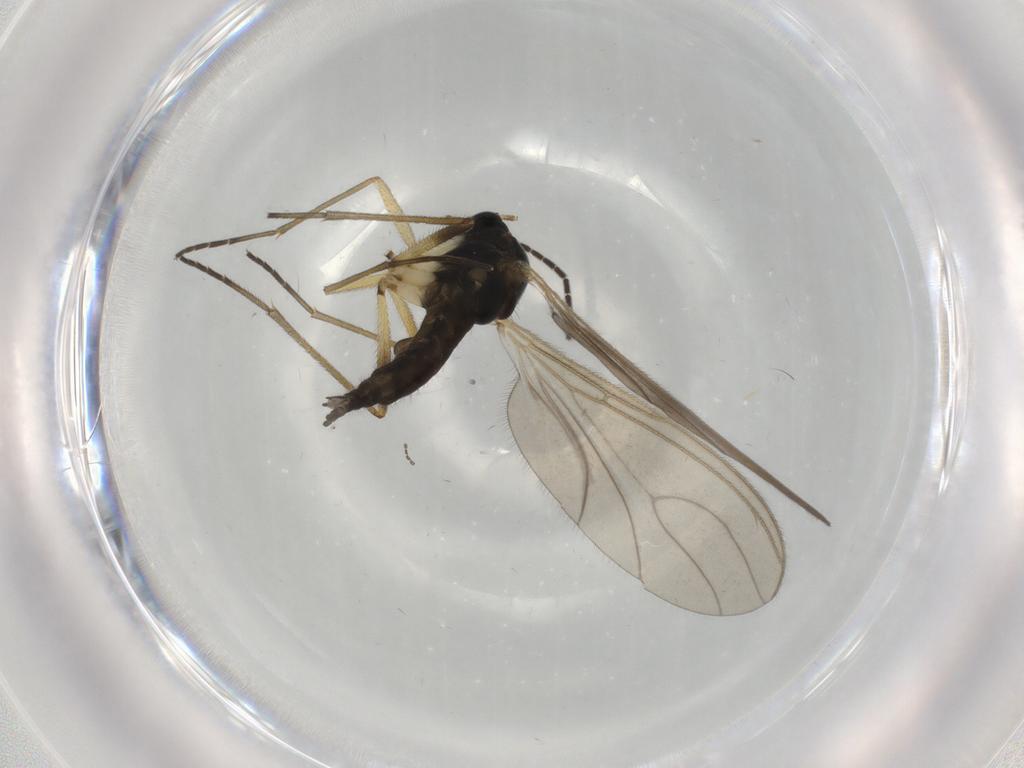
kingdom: Animalia
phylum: Arthropoda
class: Insecta
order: Diptera
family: Sciaridae
